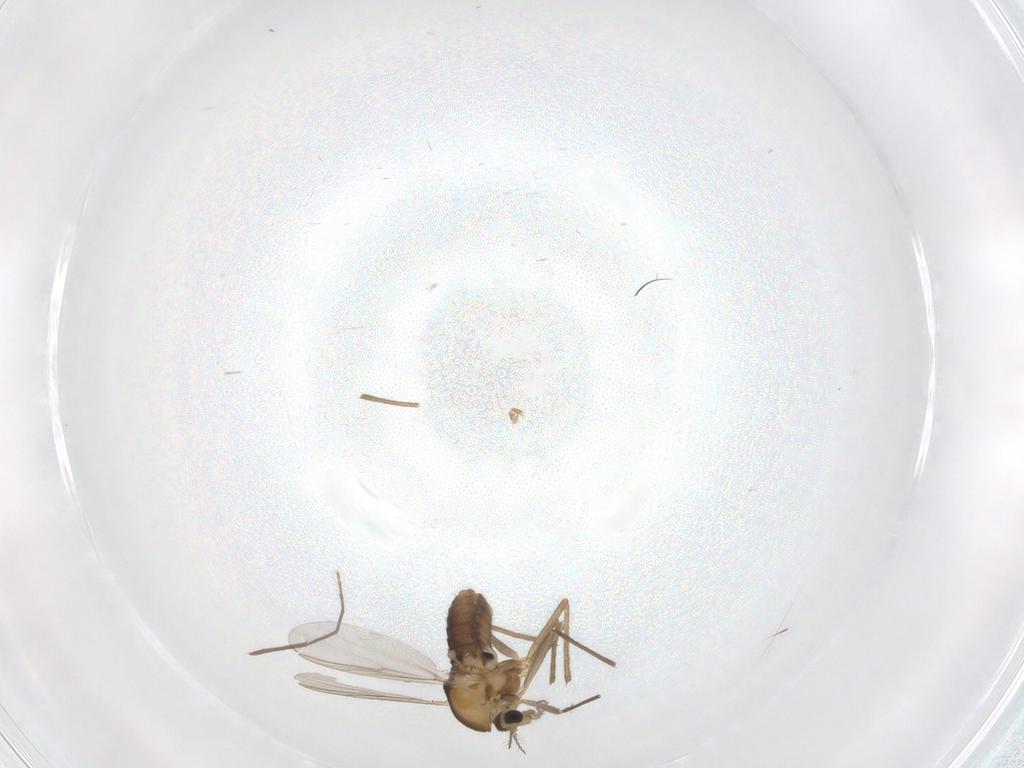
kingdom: Animalia
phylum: Arthropoda
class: Insecta
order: Diptera
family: Chironomidae
